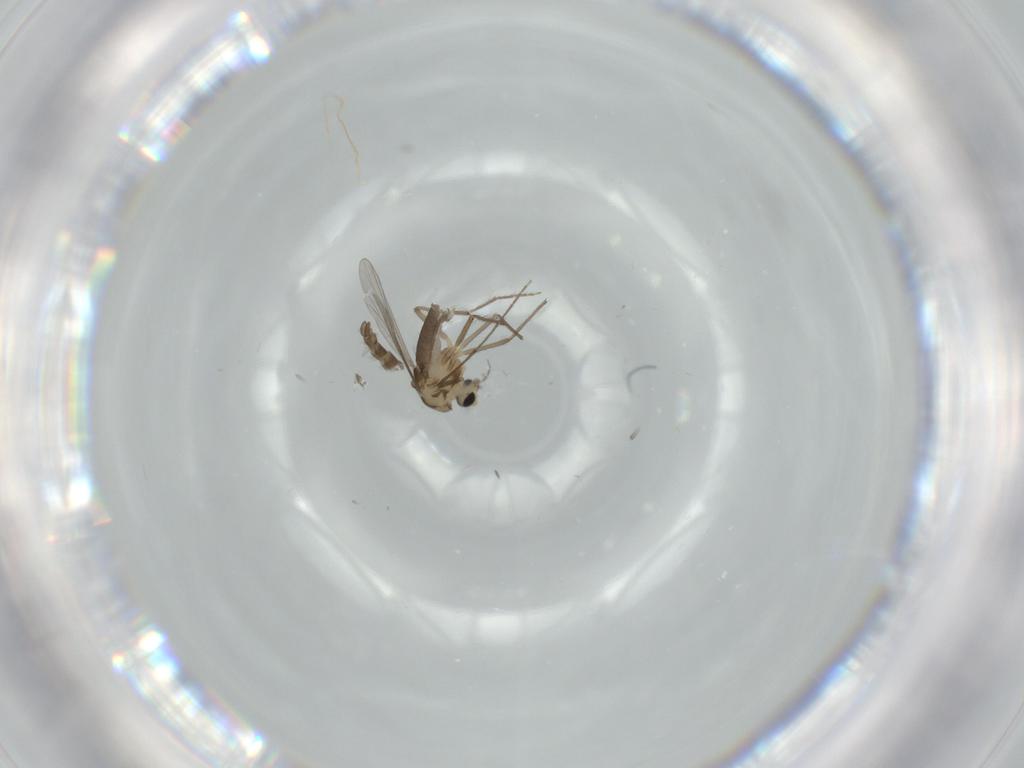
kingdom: Animalia
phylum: Arthropoda
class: Insecta
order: Diptera
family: Chironomidae
